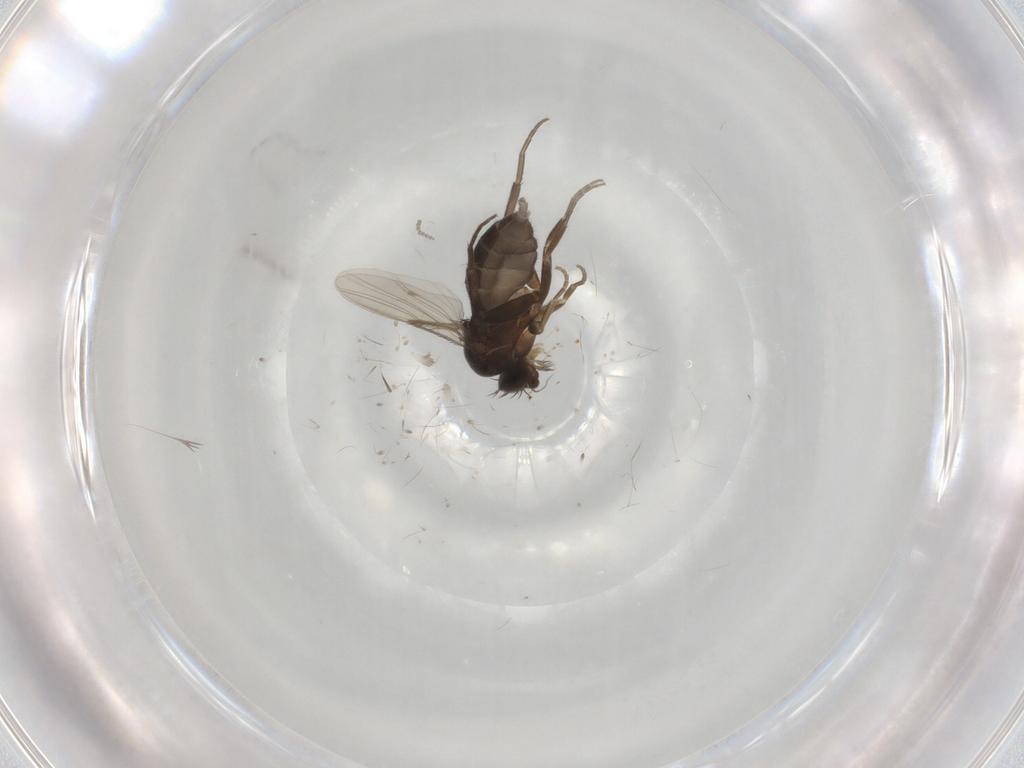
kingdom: Animalia
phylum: Arthropoda
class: Insecta
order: Diptera
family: Phoridae
